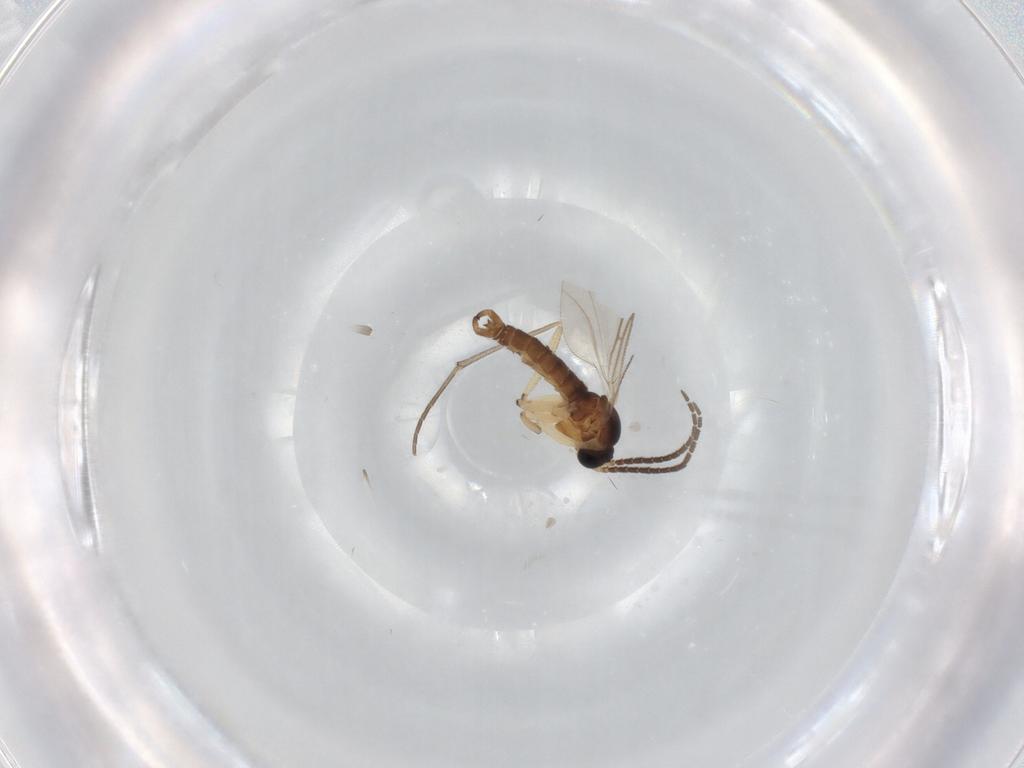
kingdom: Animalia
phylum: Arthropoda
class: Insecta
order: Diptera
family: Sciaridae
